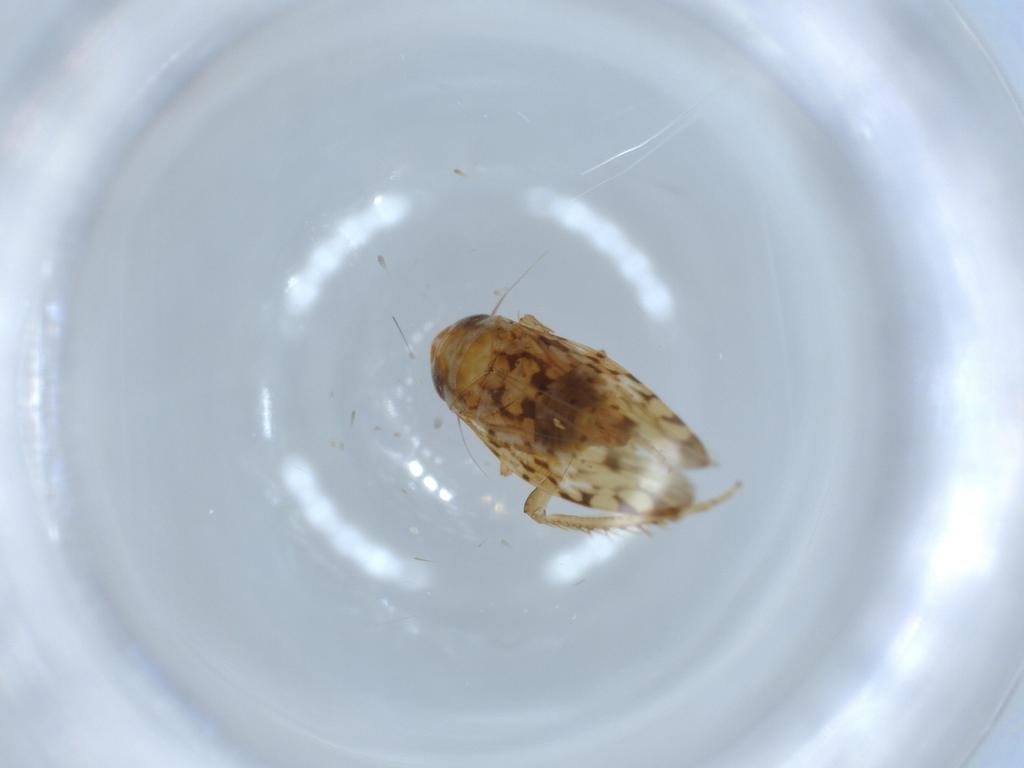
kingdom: Animalia
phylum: Arthropoda
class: Insecta
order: Hemiptera
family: Cicadellidae
